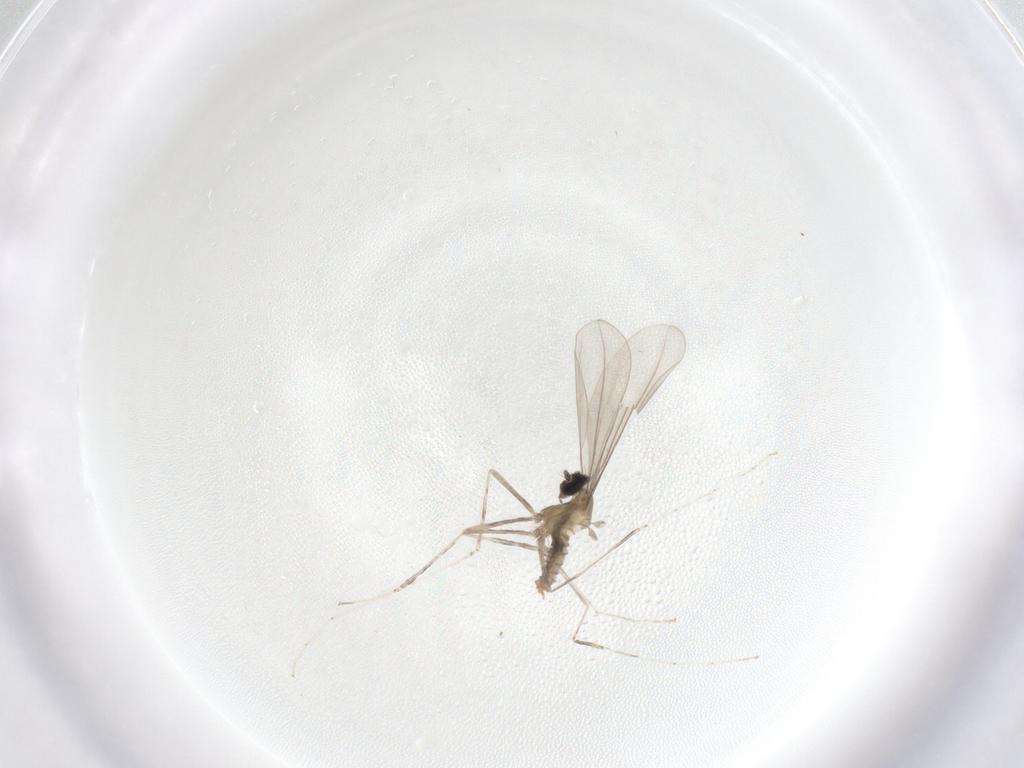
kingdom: Animalia
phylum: Arthropoda
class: Insecta
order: Diptera
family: Cecidomyiidae
